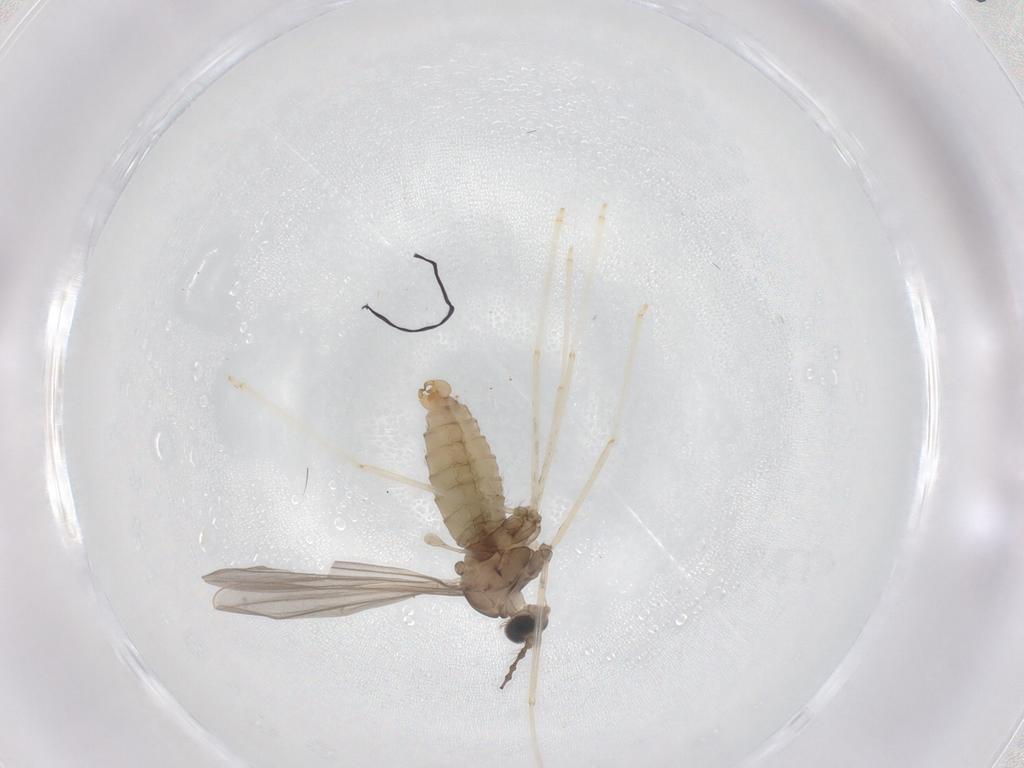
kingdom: Animalia
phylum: Arthropoda
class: Insecta
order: Diptera
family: Cecidomyiidae
